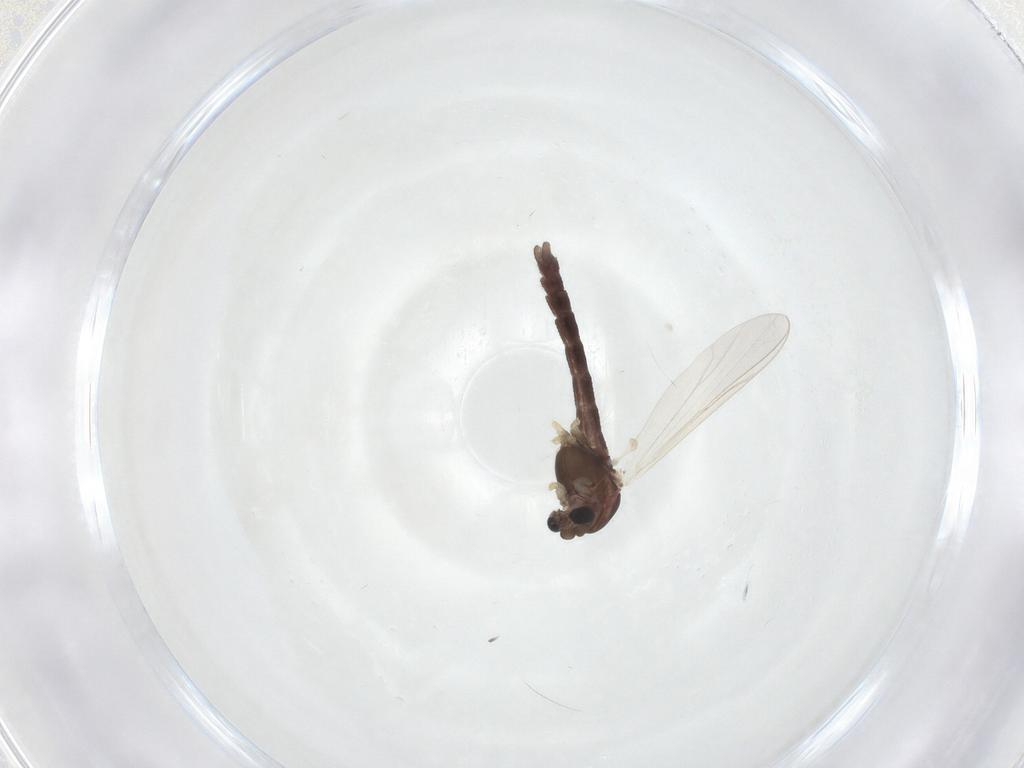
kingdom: Animalia
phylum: Arthropoda
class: Insecta
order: Diptera
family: Chironomidae
